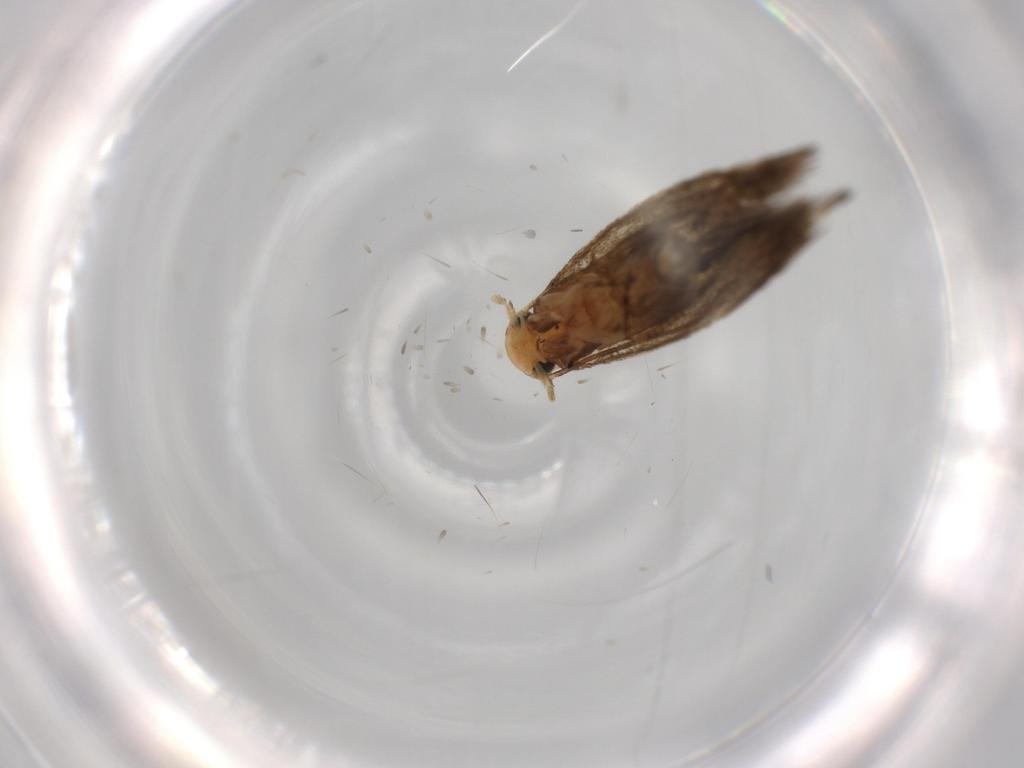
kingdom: Animalia
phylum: Arthropoda
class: Insecta
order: Lepidoptera
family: Tineidae
